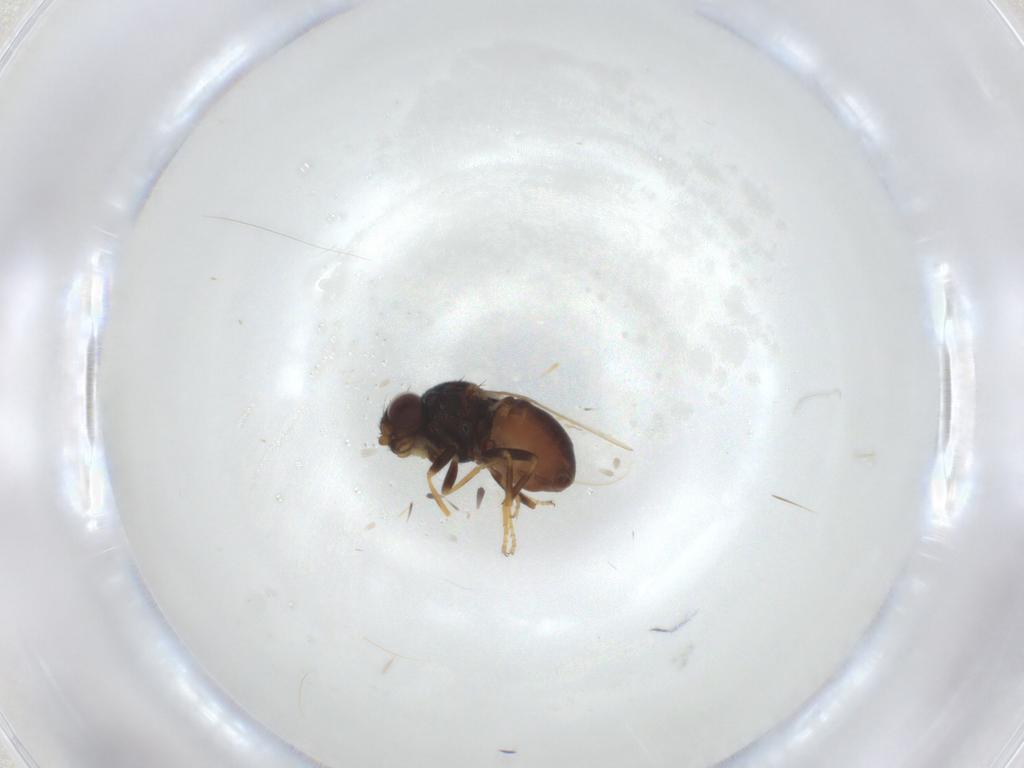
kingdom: Animalia
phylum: Arthropoda
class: Insecta
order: Diptera
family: Chloropidae
